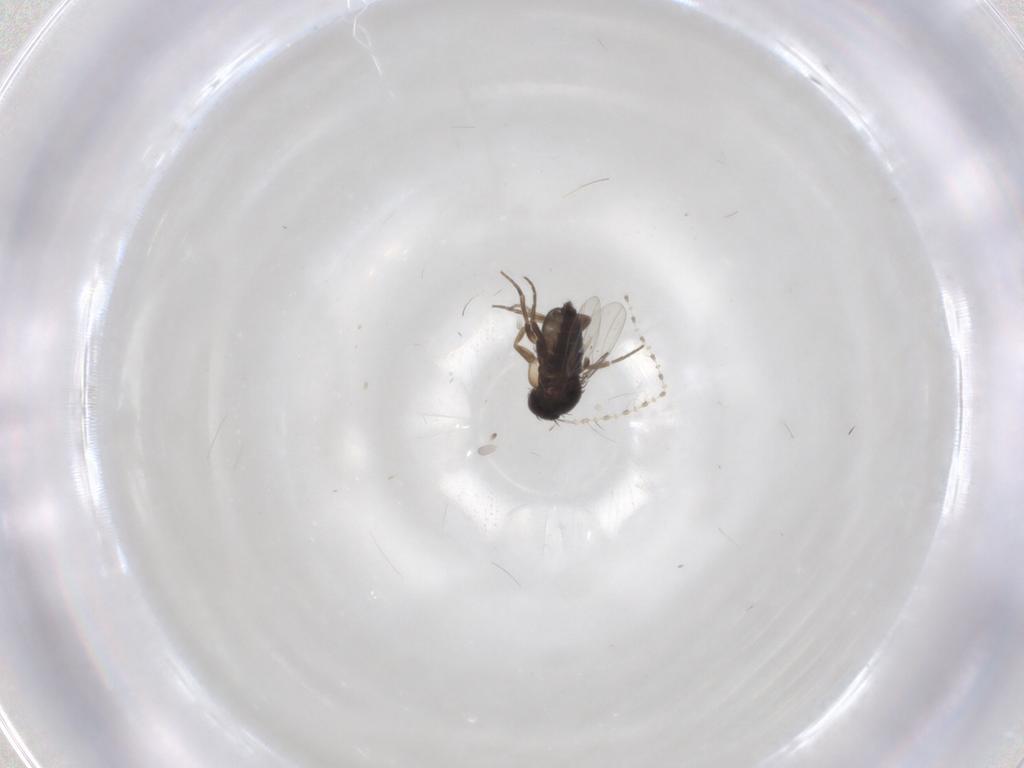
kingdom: Animalia
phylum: Arthropoda
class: Insecta
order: Diptera
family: Phoridae
